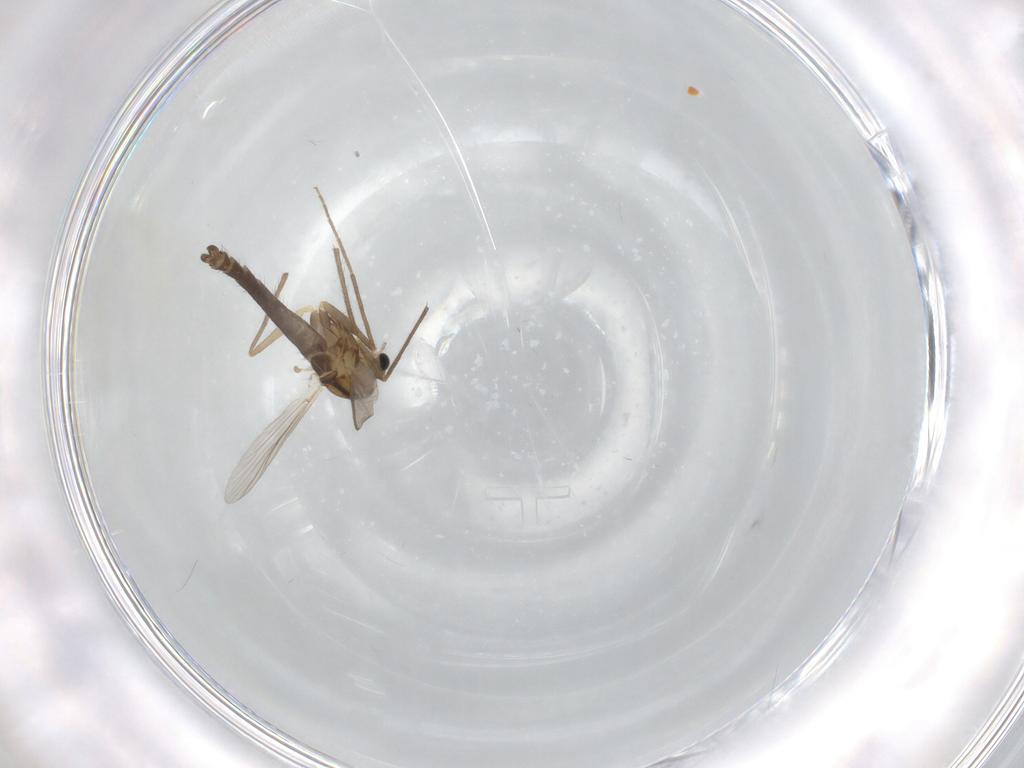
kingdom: Animalia
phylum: Arthropoda
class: Insecta
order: Diptera
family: Chironomidae
